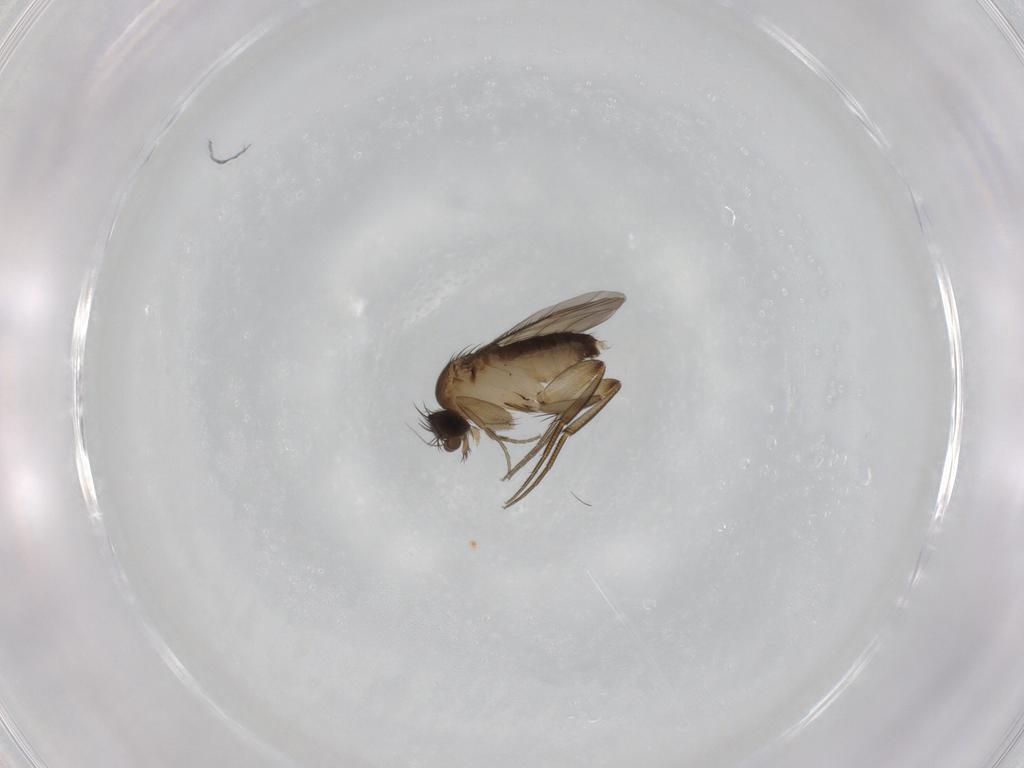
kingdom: Animalia
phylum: Arthropoda
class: Insecta
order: Diptera
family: Phoridae
